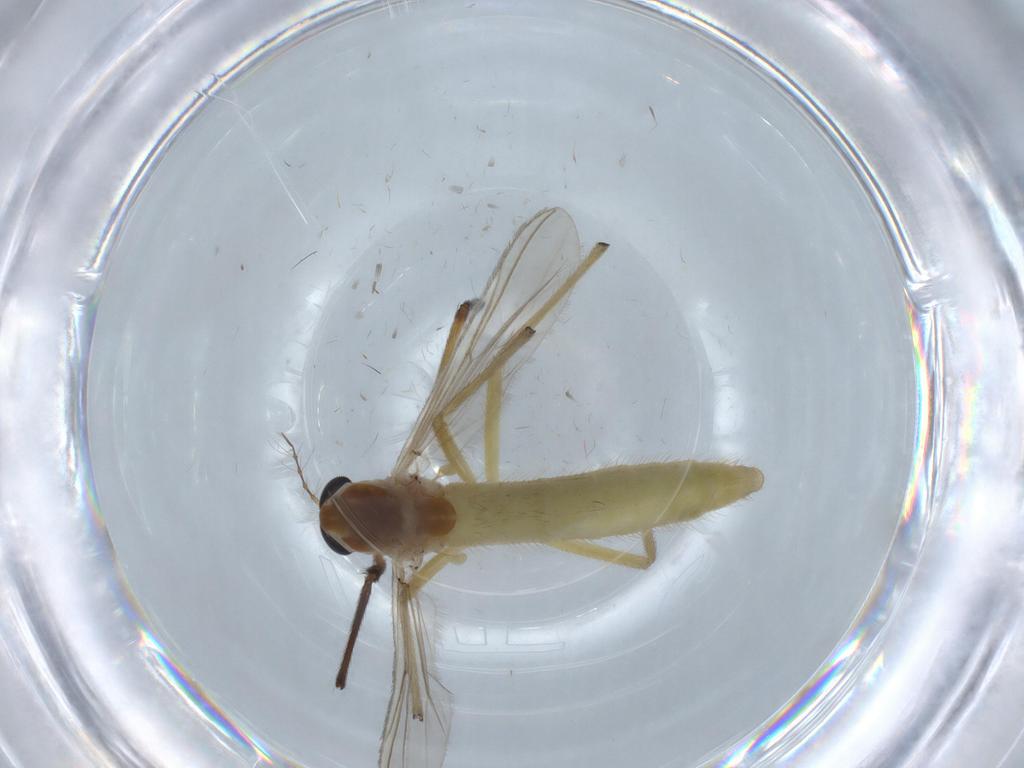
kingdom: Animalia
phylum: Arthropoda
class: Insecta
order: Diptera
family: Chironomidae
